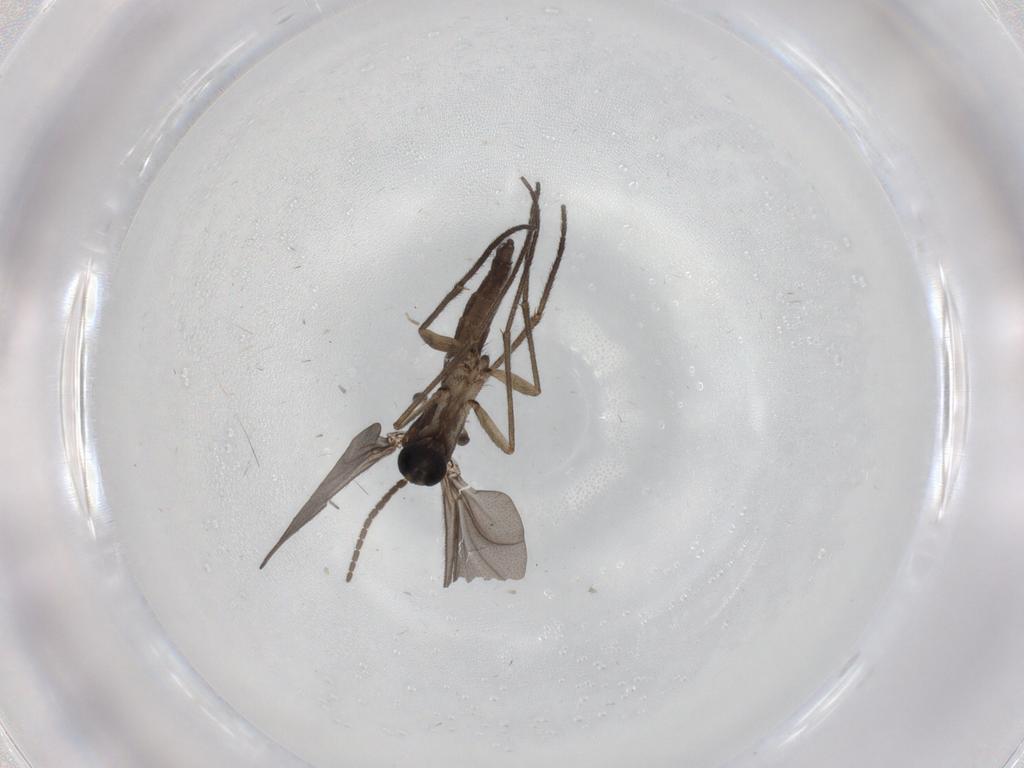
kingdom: Animalia
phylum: Arthropoda
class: Insecta
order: Diptera
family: Sciaridae
